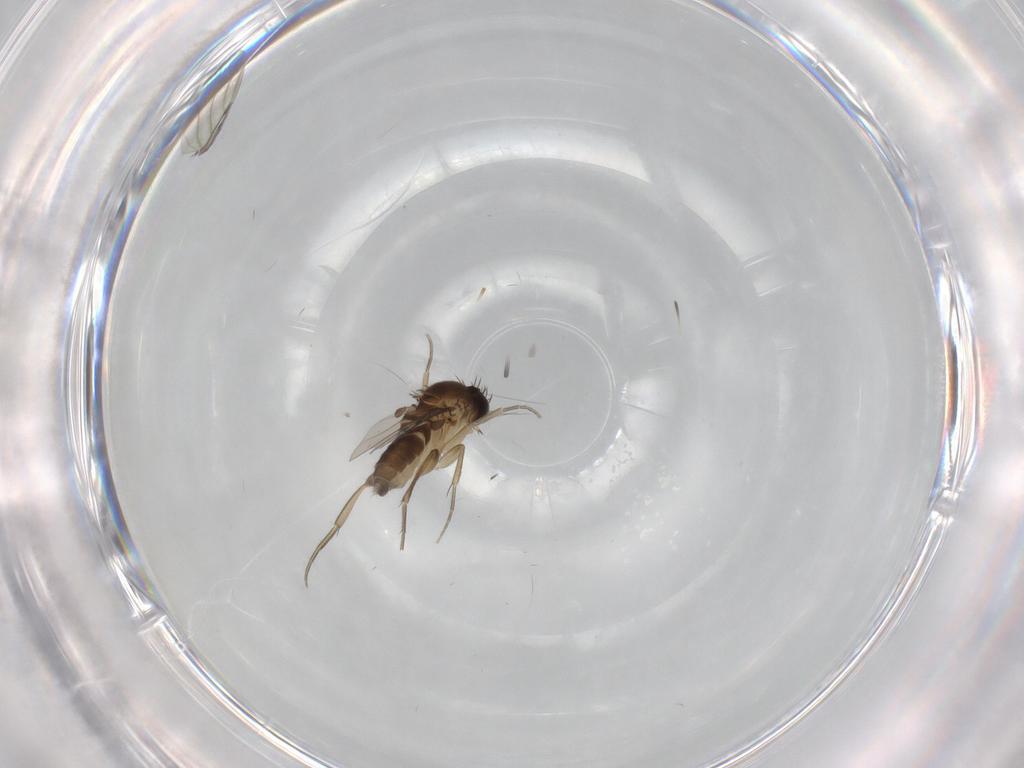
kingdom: Animalia
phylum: Arthropoda
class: Insecta
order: Diptera
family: Phoridae
